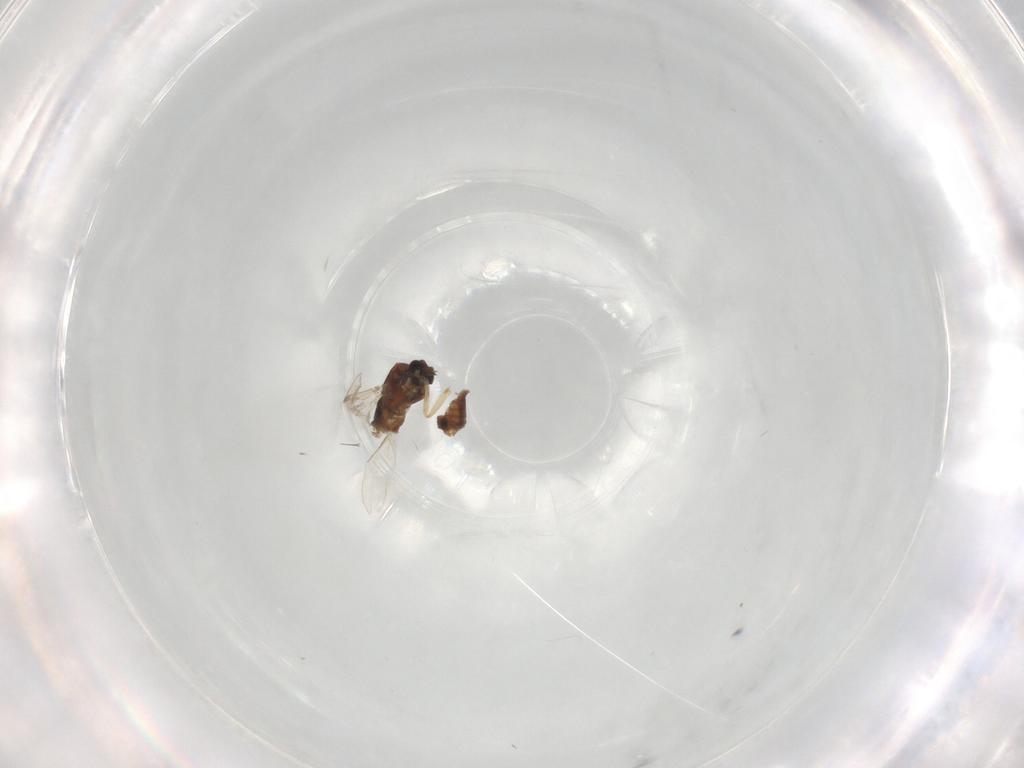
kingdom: Animalia
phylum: Arthropoda
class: Insecta
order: Diptera
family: Ceratopogonidae
